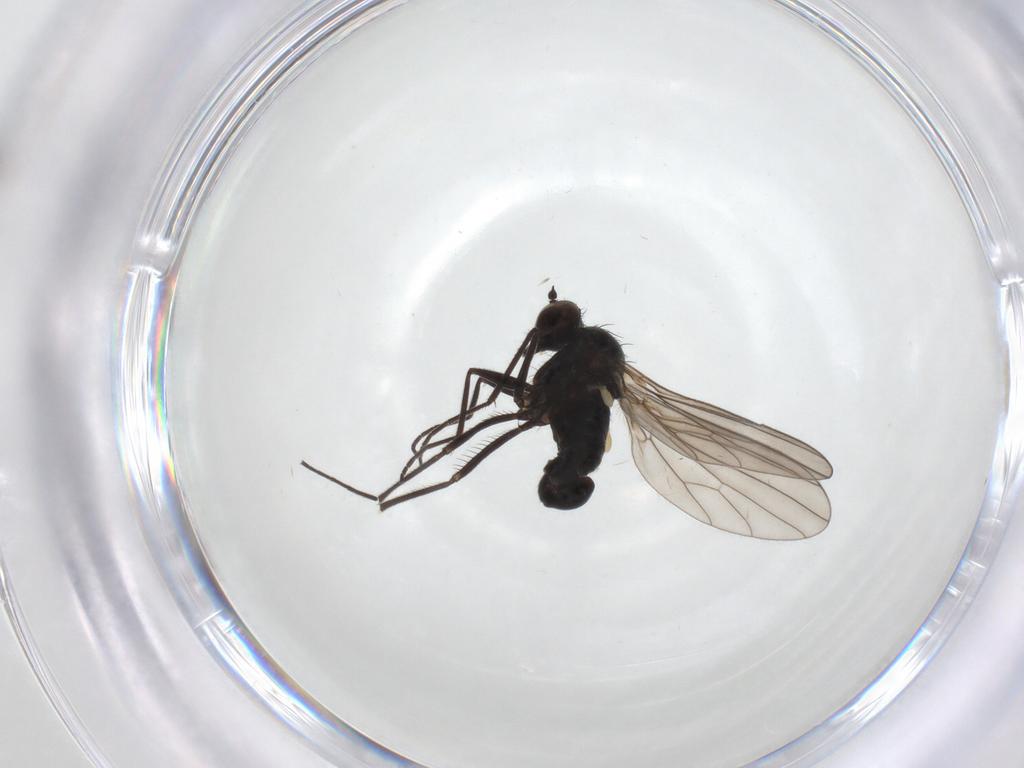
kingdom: Animalia
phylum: Arthropoda
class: Insecta
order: Diptera
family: Dolichopodidae
